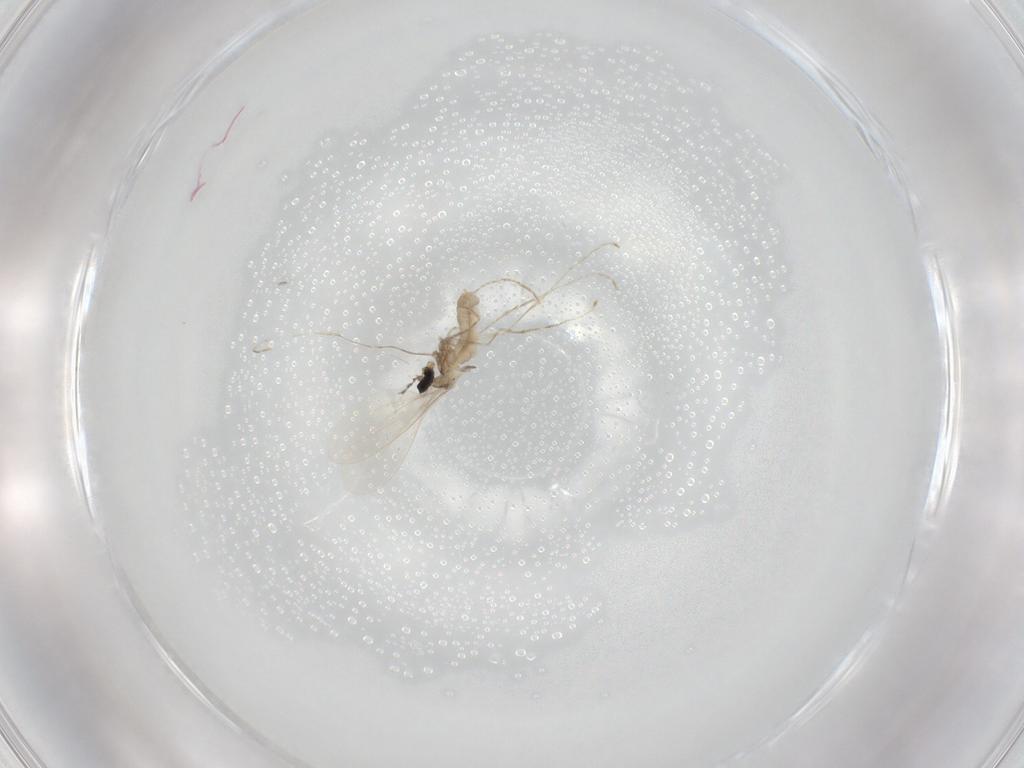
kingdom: Animalia
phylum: Arthropoda
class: Insecta
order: Diptera
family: Cecidomyiidae
